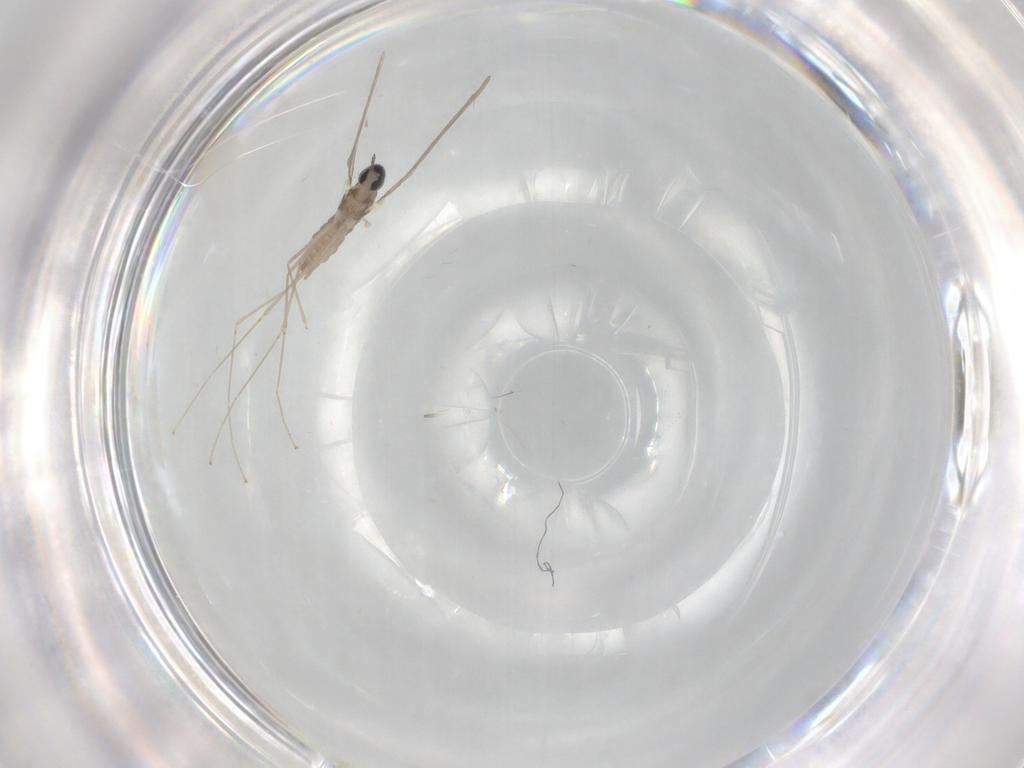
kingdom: Animalia
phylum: Arthropoda
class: Insecta
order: Diptera
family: Cecidomyiidae
